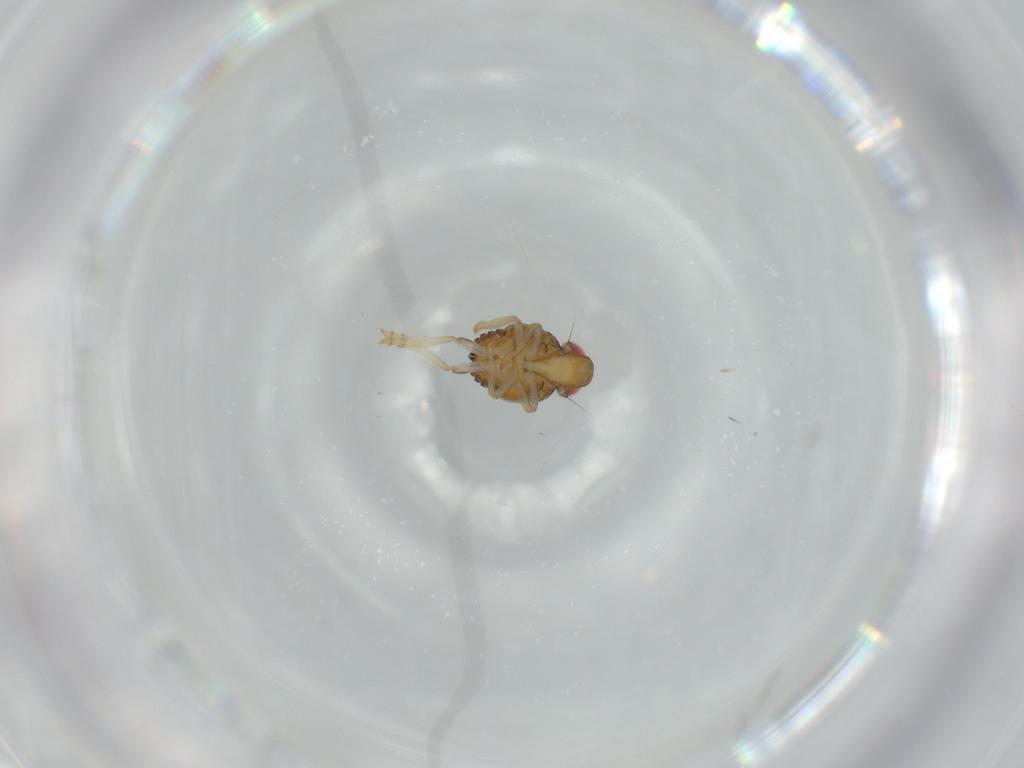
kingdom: Animalia
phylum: Arthropoda
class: Insecta
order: Hemiptera
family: Issidae
